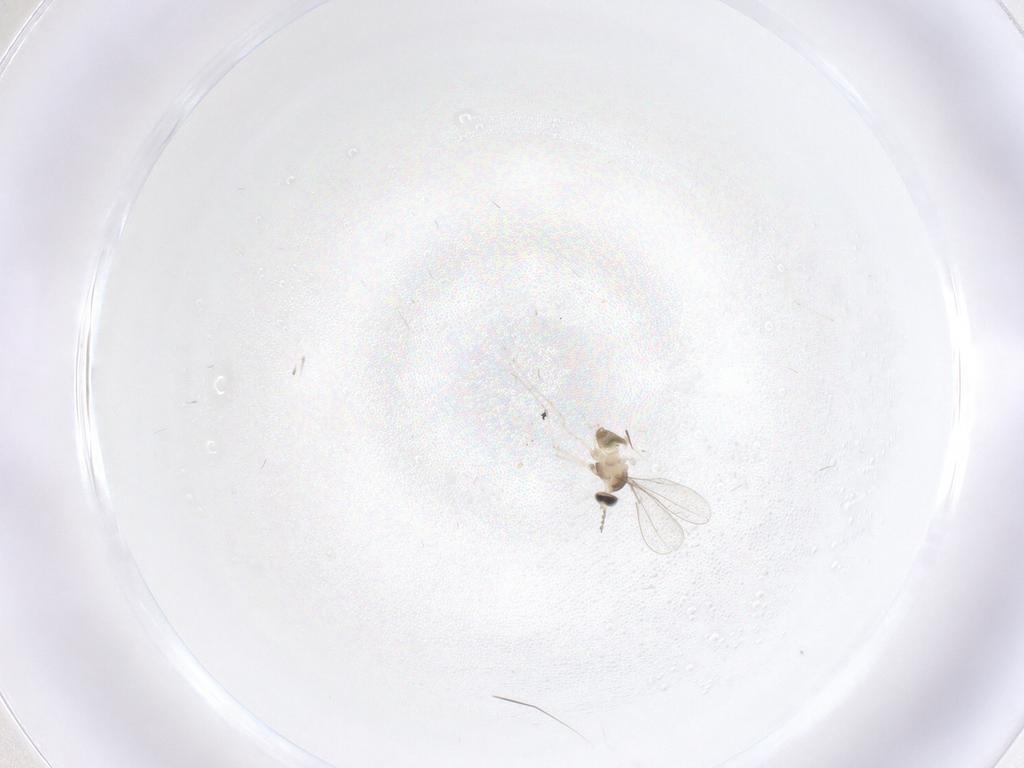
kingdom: Animalia
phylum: Arthropoda
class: Insecta
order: Diptera
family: Cecidomyiidae
